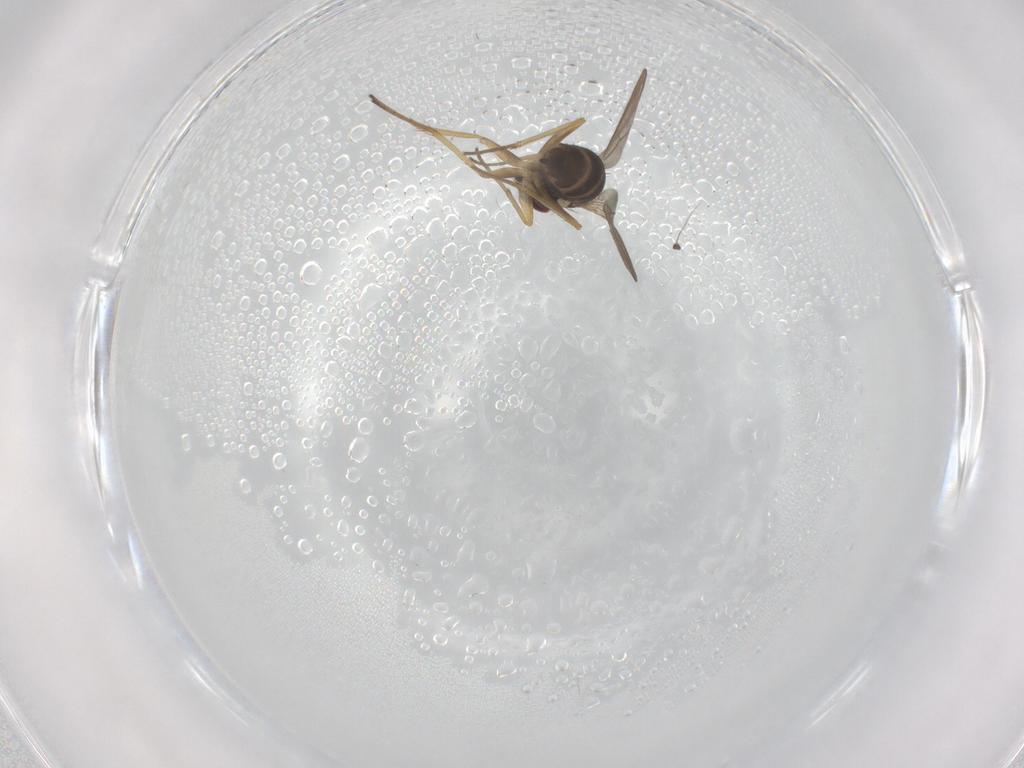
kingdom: Animalia
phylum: Arthropoda
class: Insecta
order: Diptera
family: Dolichopodidae
